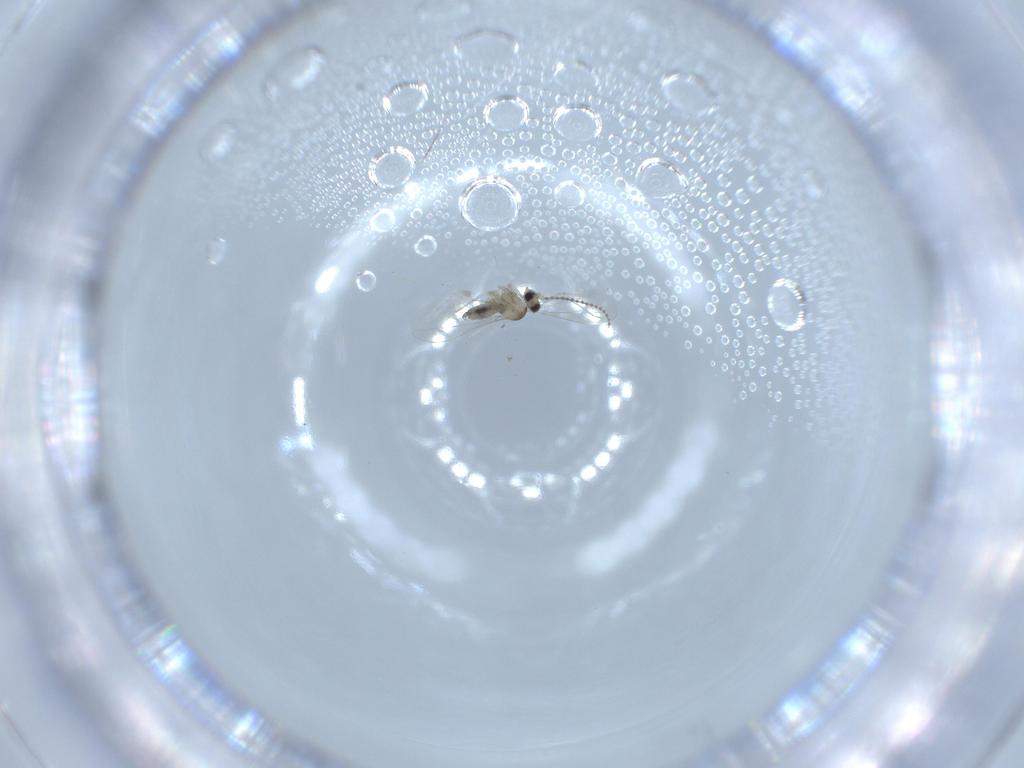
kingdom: Animalia
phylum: Arthropoda
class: Insecta
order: Diptera
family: Cecidomyiidae
